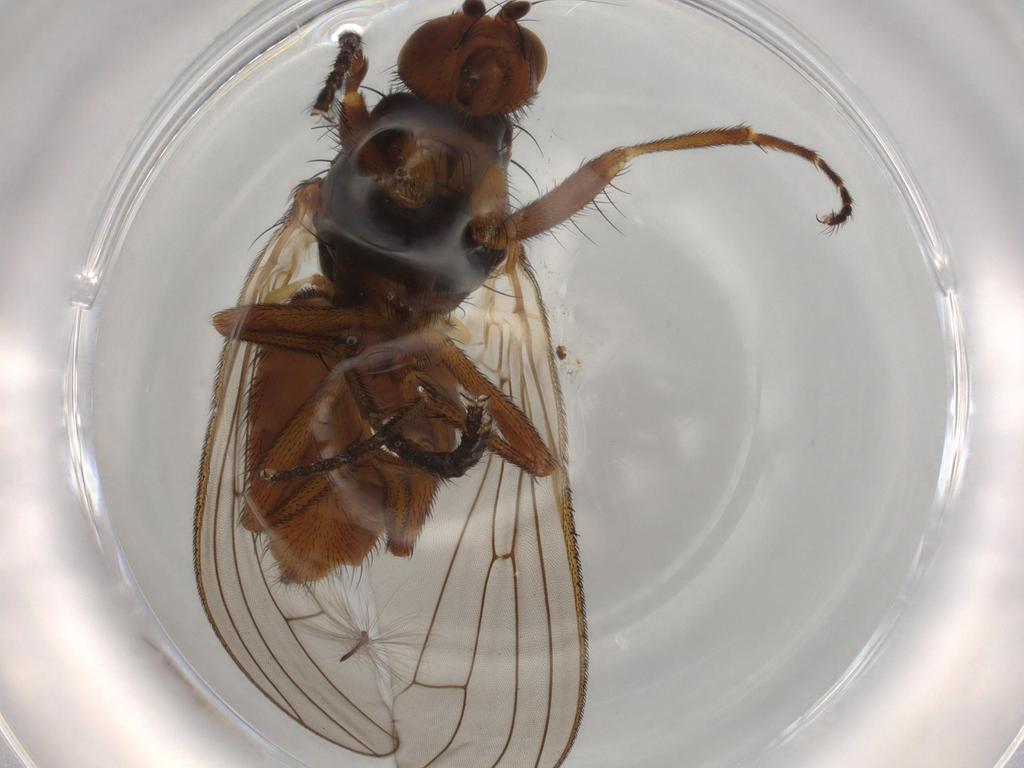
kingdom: Animalia
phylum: Arthropoda
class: Insecta
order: Diptera
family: Heleomyzidae
